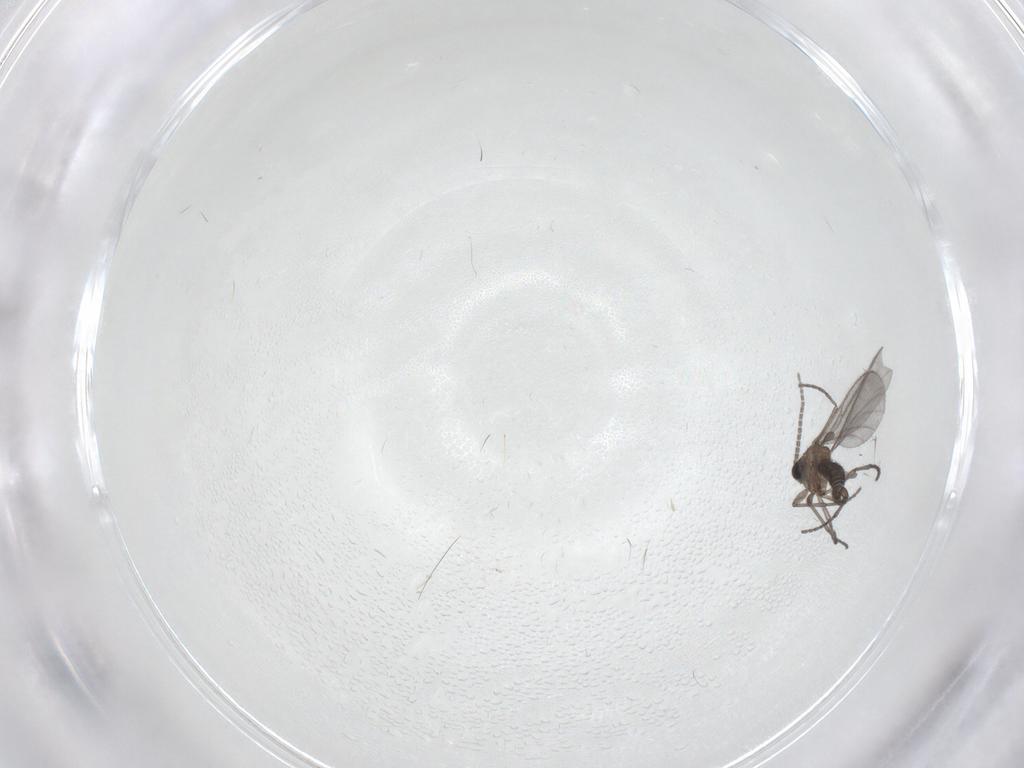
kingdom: Animalia
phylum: Arthropoda
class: Insecta
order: Diptera
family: Sciaridae
